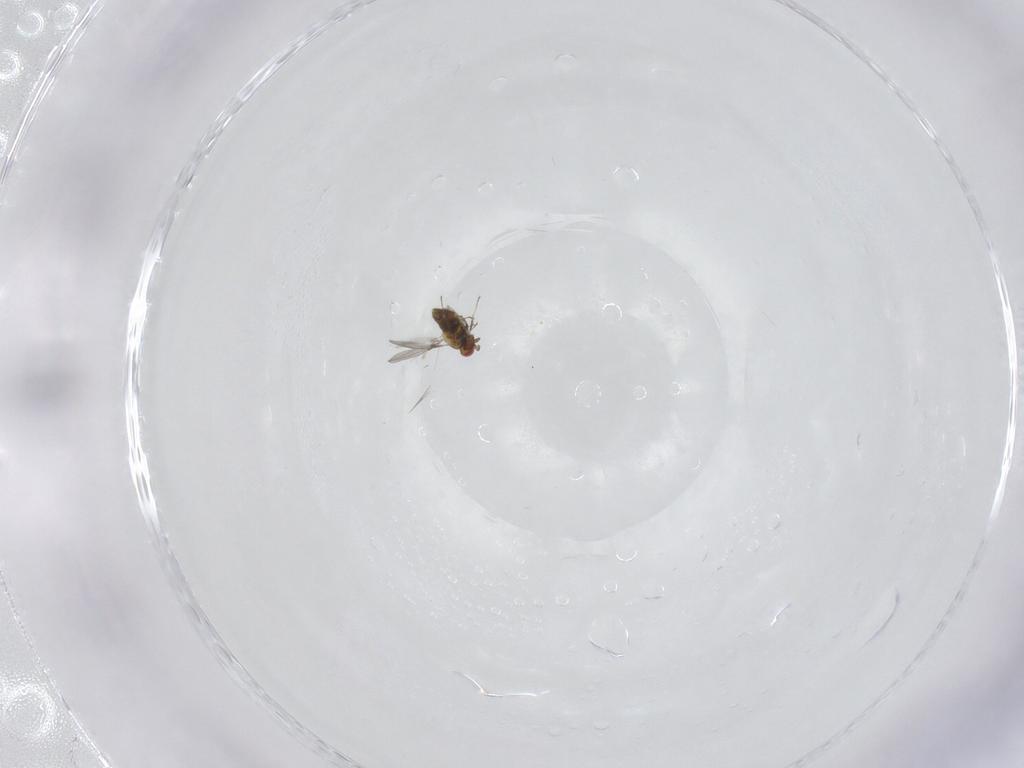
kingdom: Animalia
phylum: Arthropoda
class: Insecta
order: Hymenoptera
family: Trichogrammatidae
